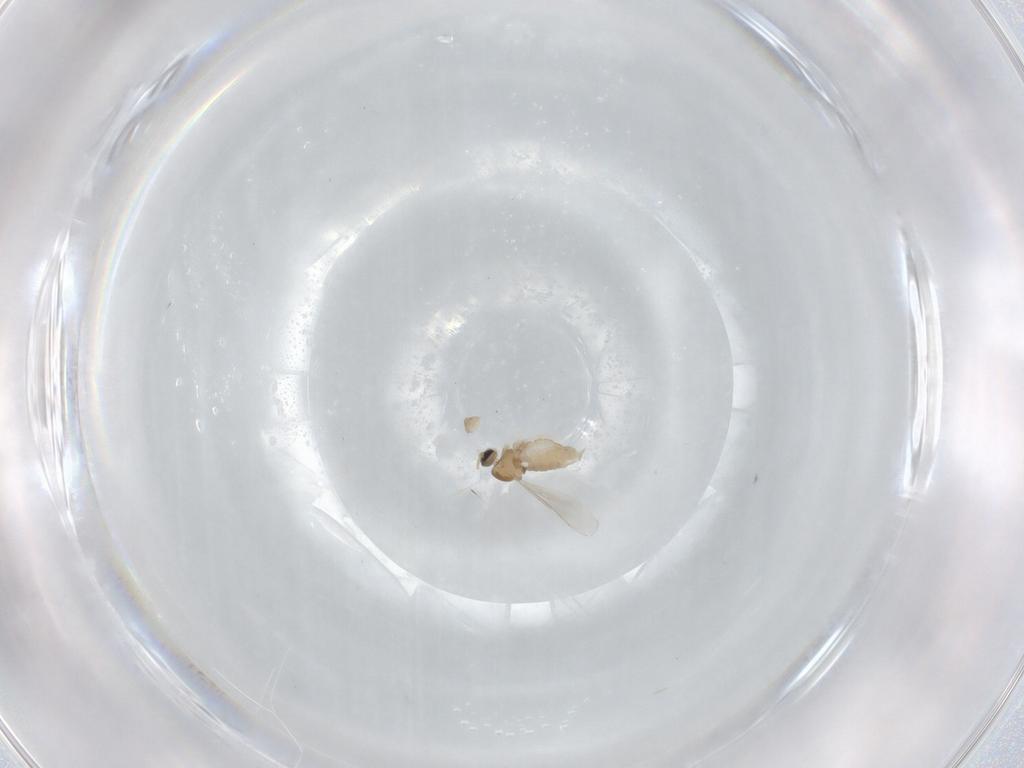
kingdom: Animalia
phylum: Arthropoda
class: Insecta
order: Diptera
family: Cecidomyiidae
